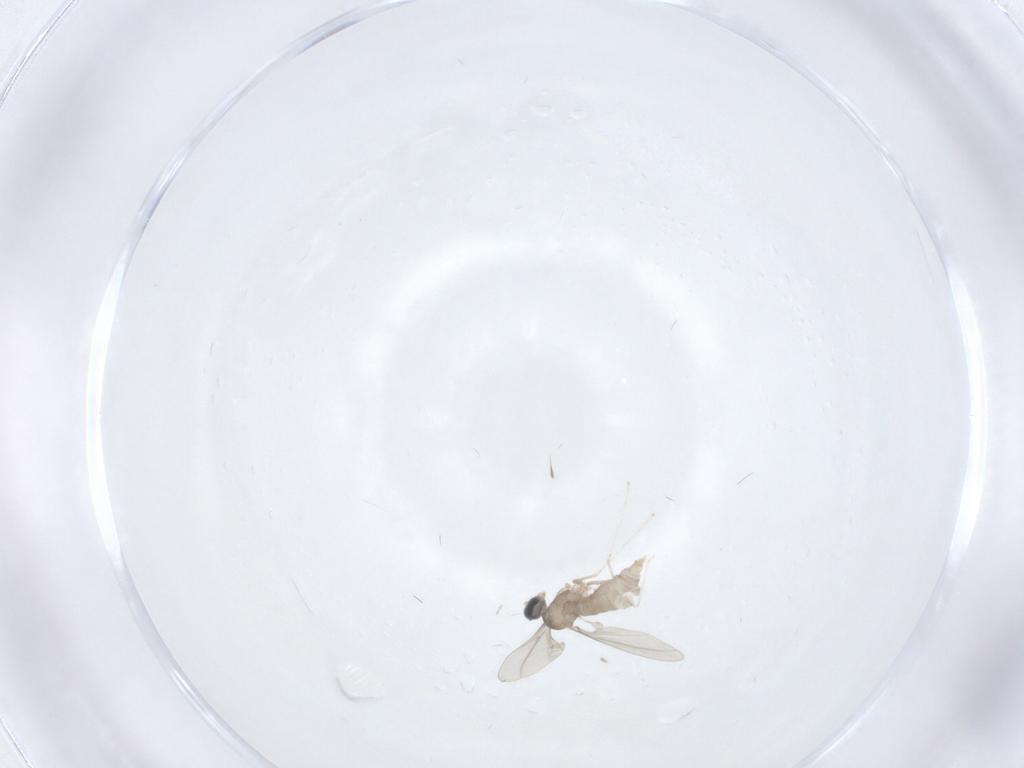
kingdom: Animalia
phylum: Arthropoda
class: Insecta
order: Diptera
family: Cecidomyiidae
